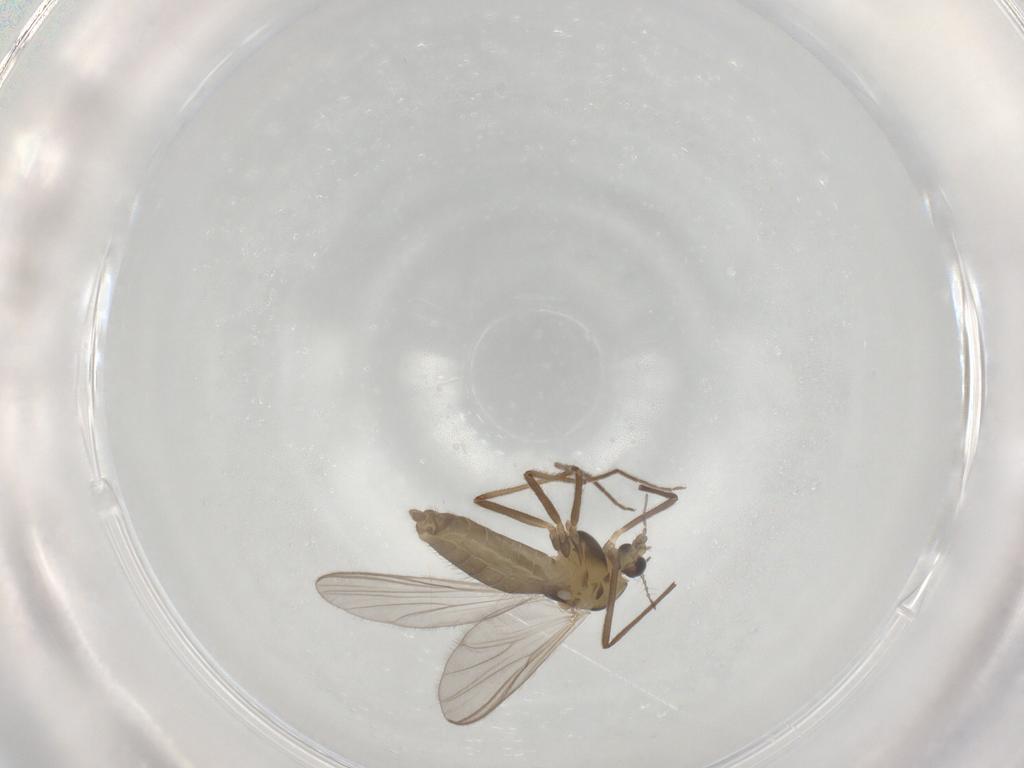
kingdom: Animalia
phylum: Arthropoda
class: Insecta
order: Diptera
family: Chironomidae
